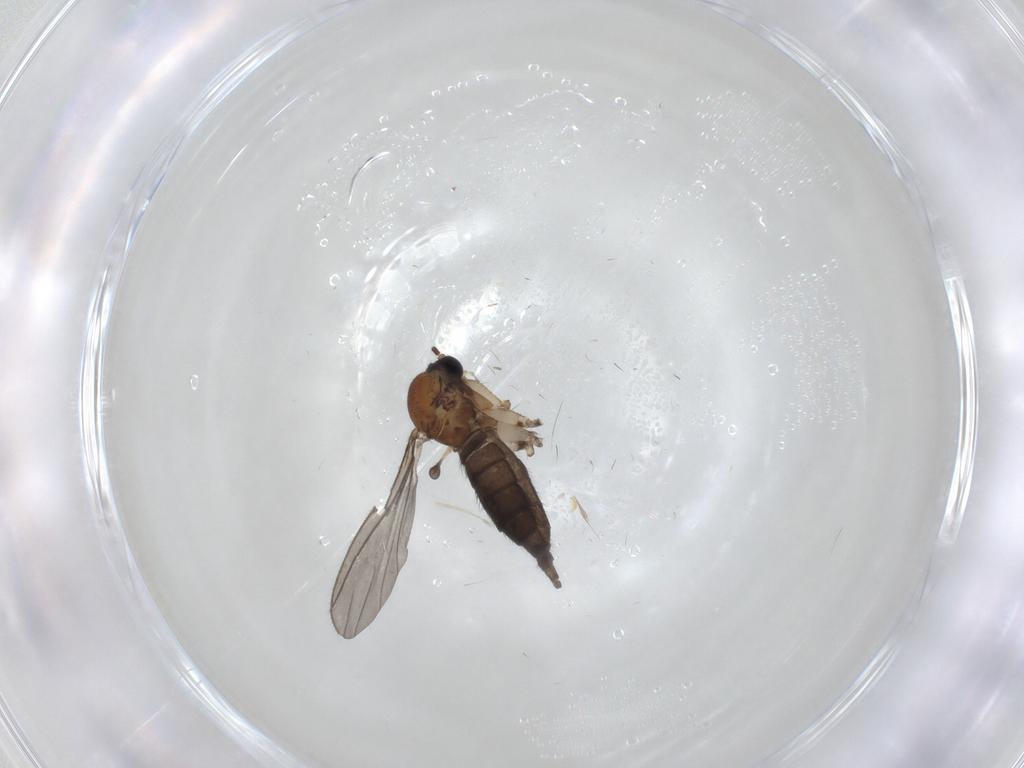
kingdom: Animalia
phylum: Arthropoda
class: Insecta
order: Diptera
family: Sciaridae
